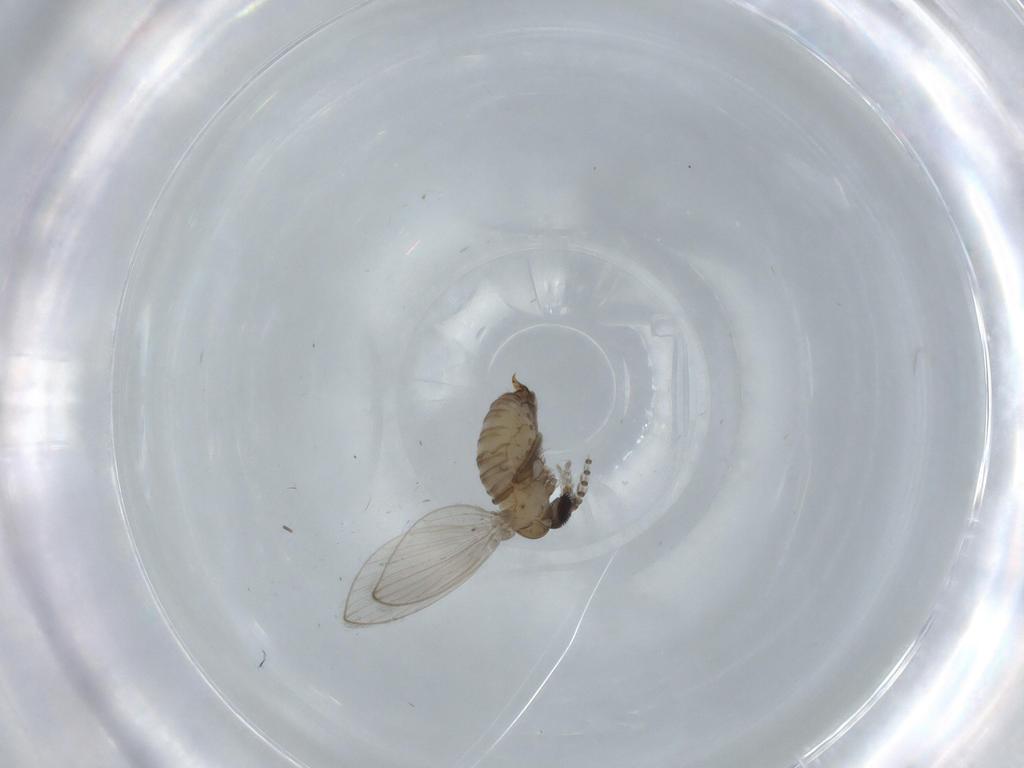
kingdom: Animalia
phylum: Arthropoda
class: Insecta
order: Diptera
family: Psychodidae
